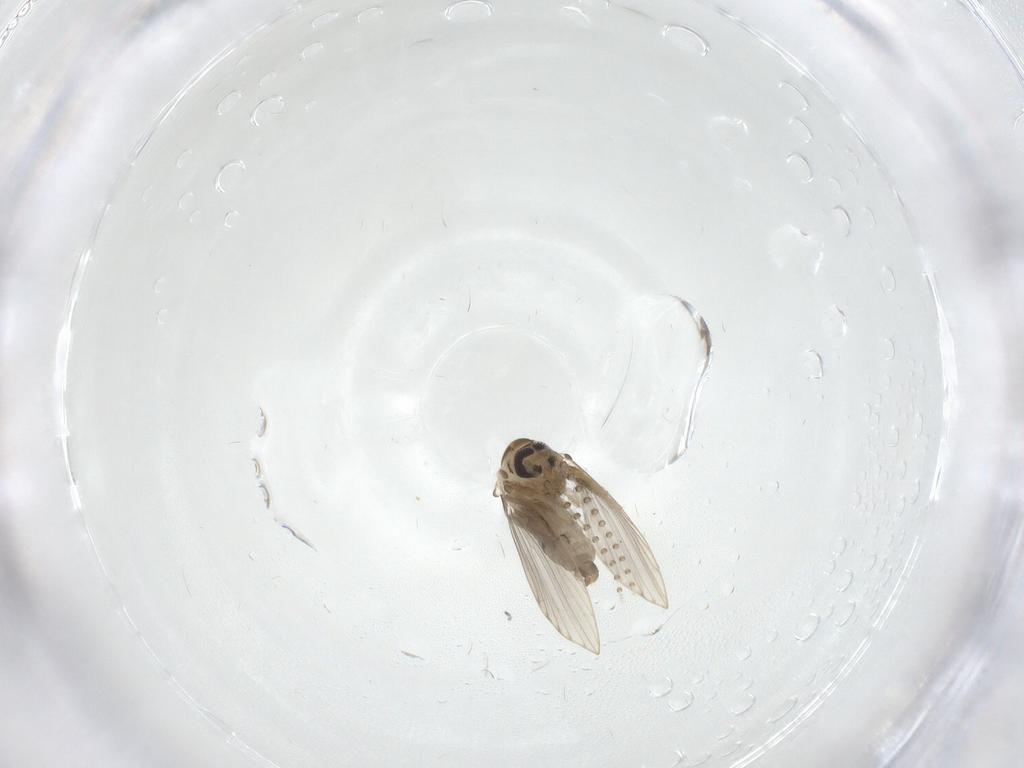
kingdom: Animalia
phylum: Arthropoda
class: Insecta
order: Diptera
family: Psychodidae
